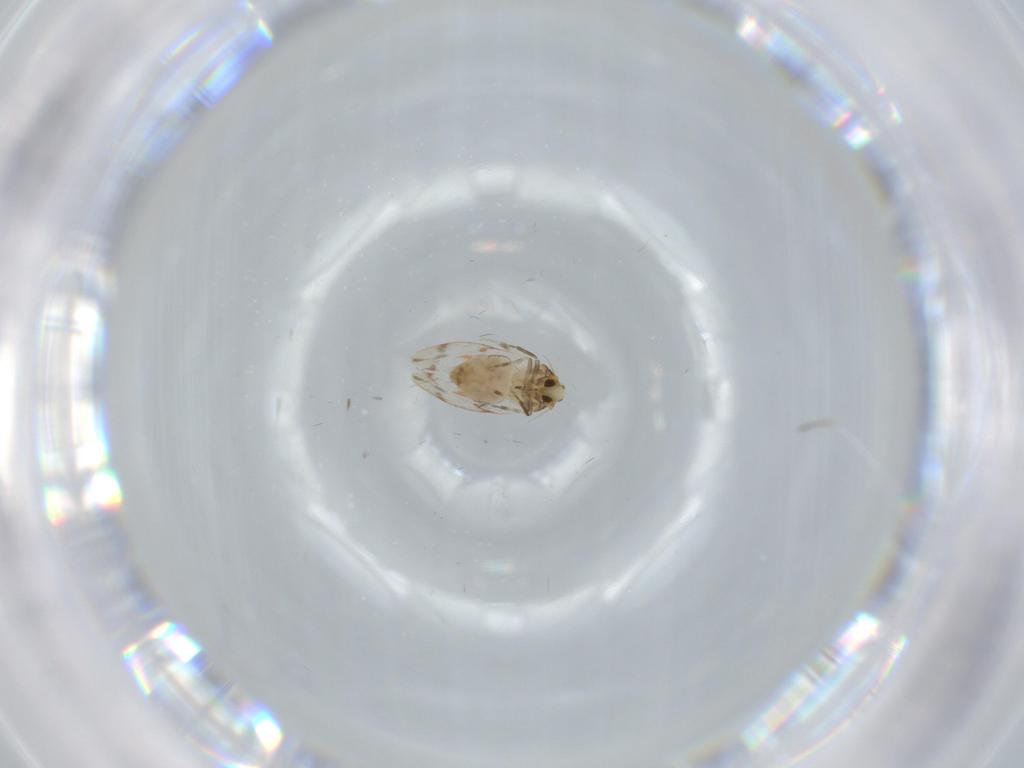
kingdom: Animalia
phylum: Arthropoda
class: Insecta
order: Hemiptera
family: Aleyrodidae
